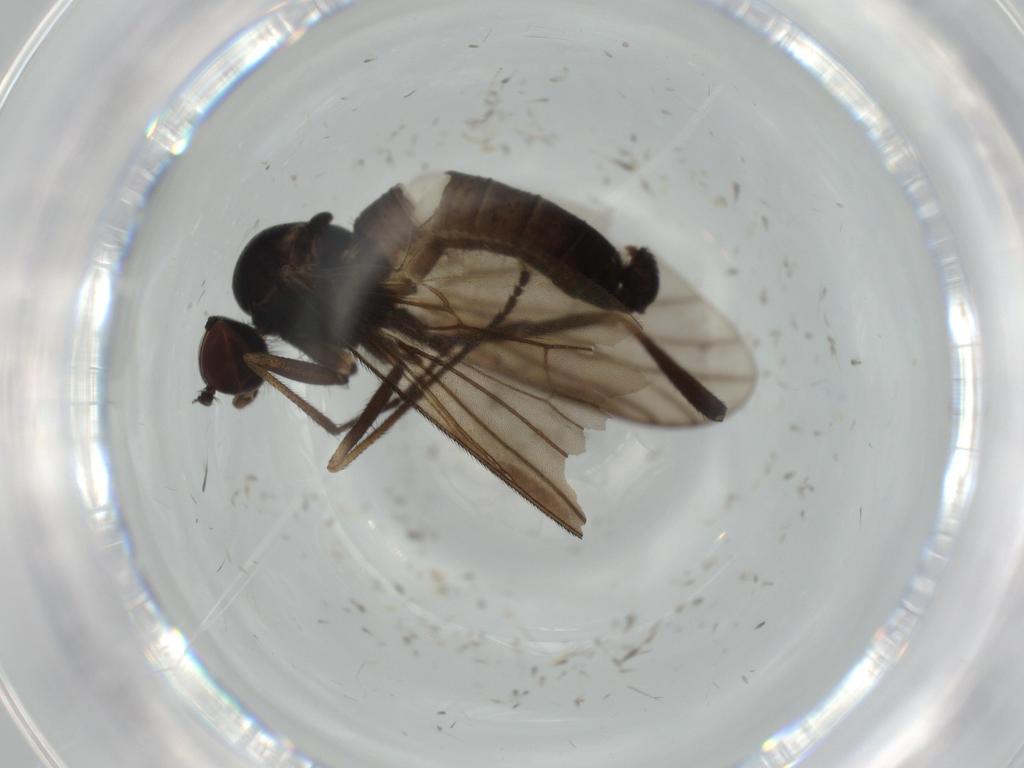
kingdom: Animalia
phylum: Arthropoda
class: Insecta
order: Diptera
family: Brachystomatidae
